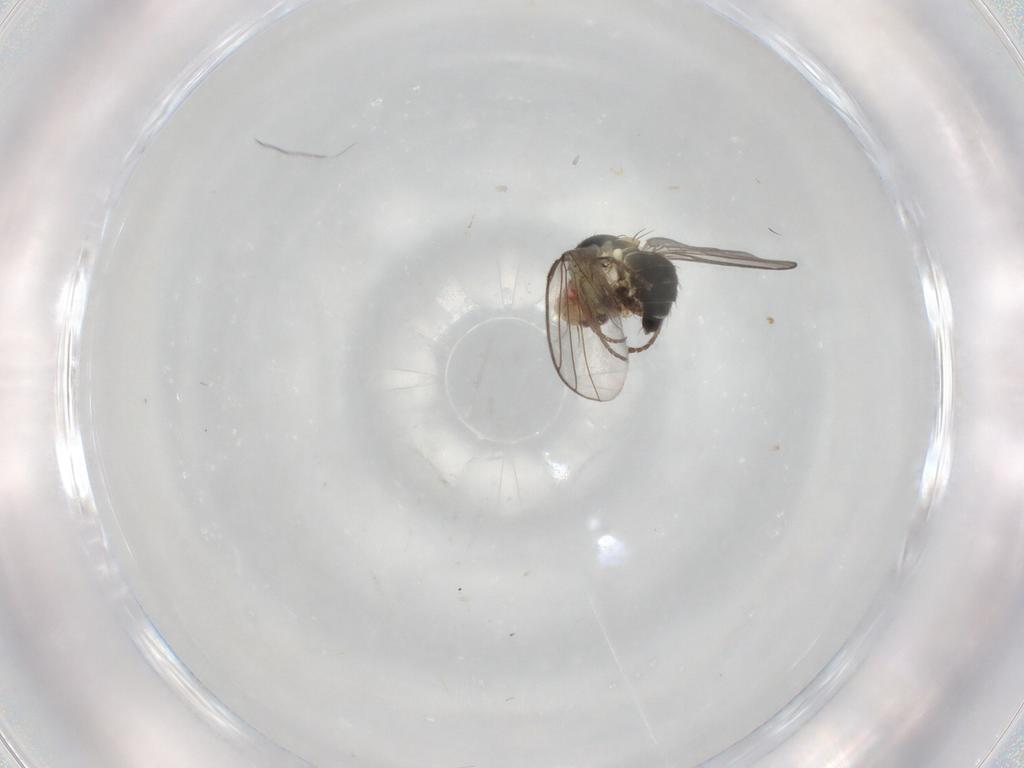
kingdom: Animalia
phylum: Arthropoda
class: Insecta
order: Diptera
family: Agromyzidae
